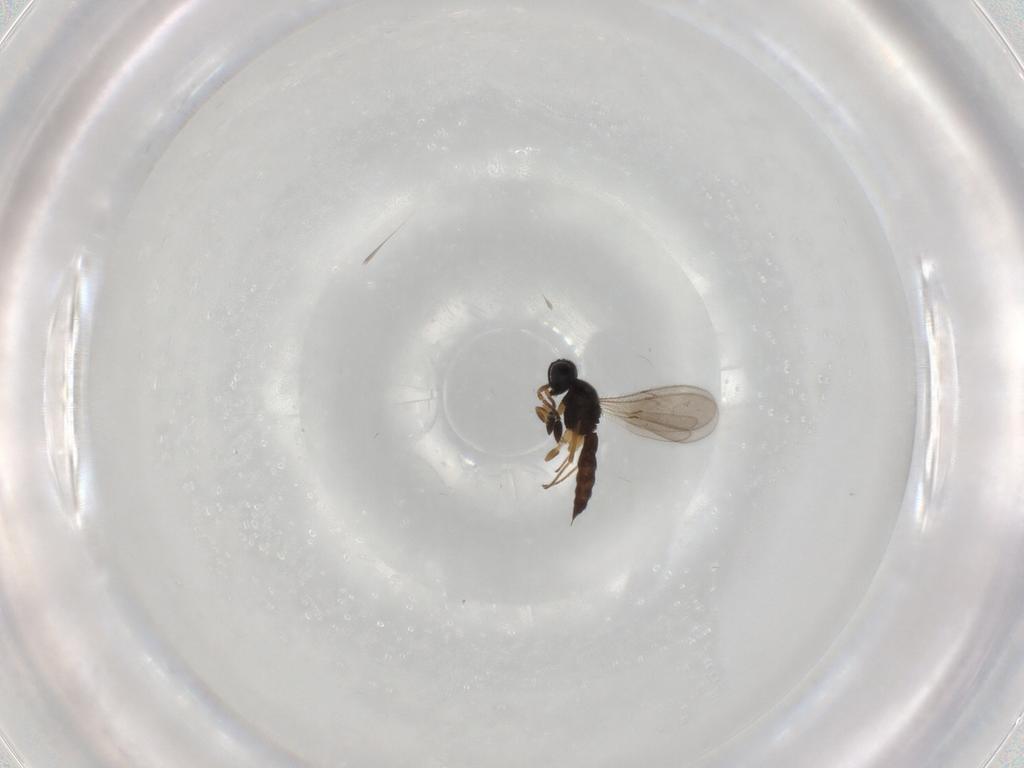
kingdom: Animalia
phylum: Arthropoda
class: Insecta
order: Hymenoptera
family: Scelionidae
